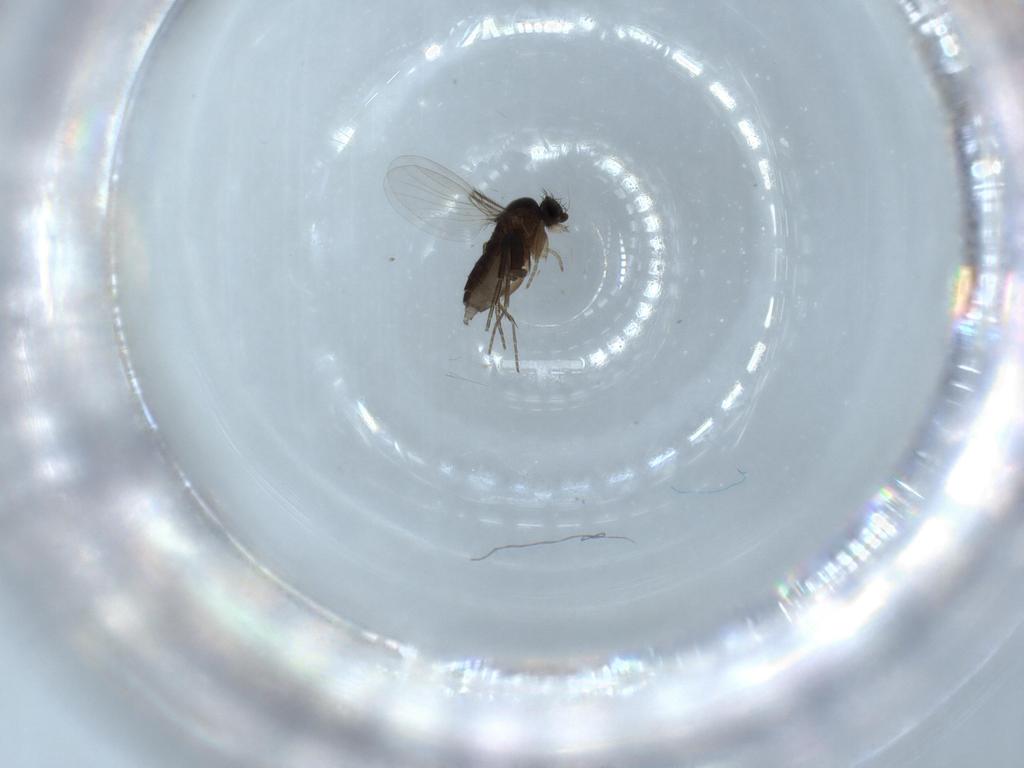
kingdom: Animalia
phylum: Arthropoda
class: Insecta
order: Diptera
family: Phoridae
